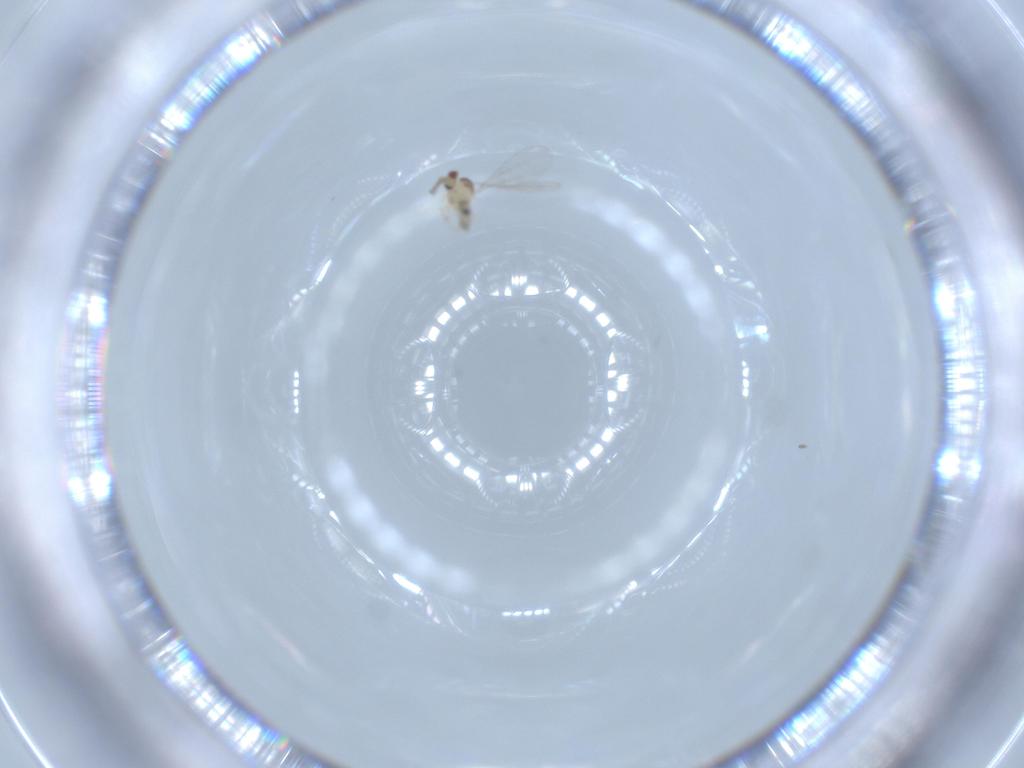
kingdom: Animalia
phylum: Arthropoda
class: Insecta
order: Diptera
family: Cecidomyiidae
